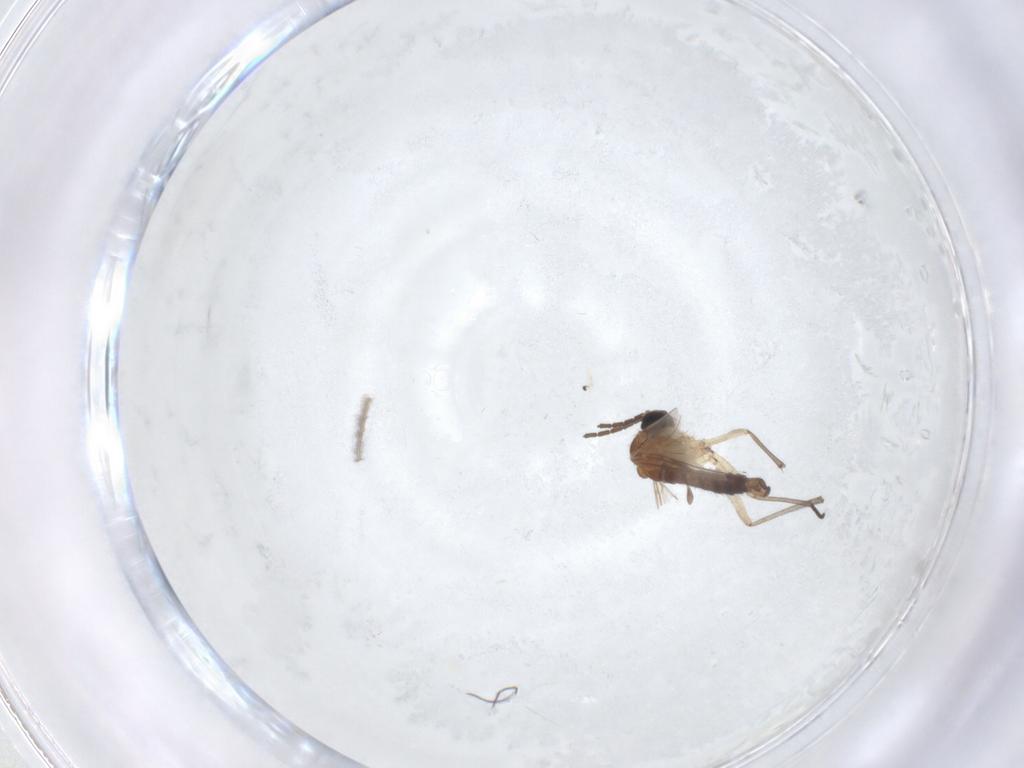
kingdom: Animalia
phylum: Arthropoda
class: Insecta
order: Diptera
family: Sciaridae
